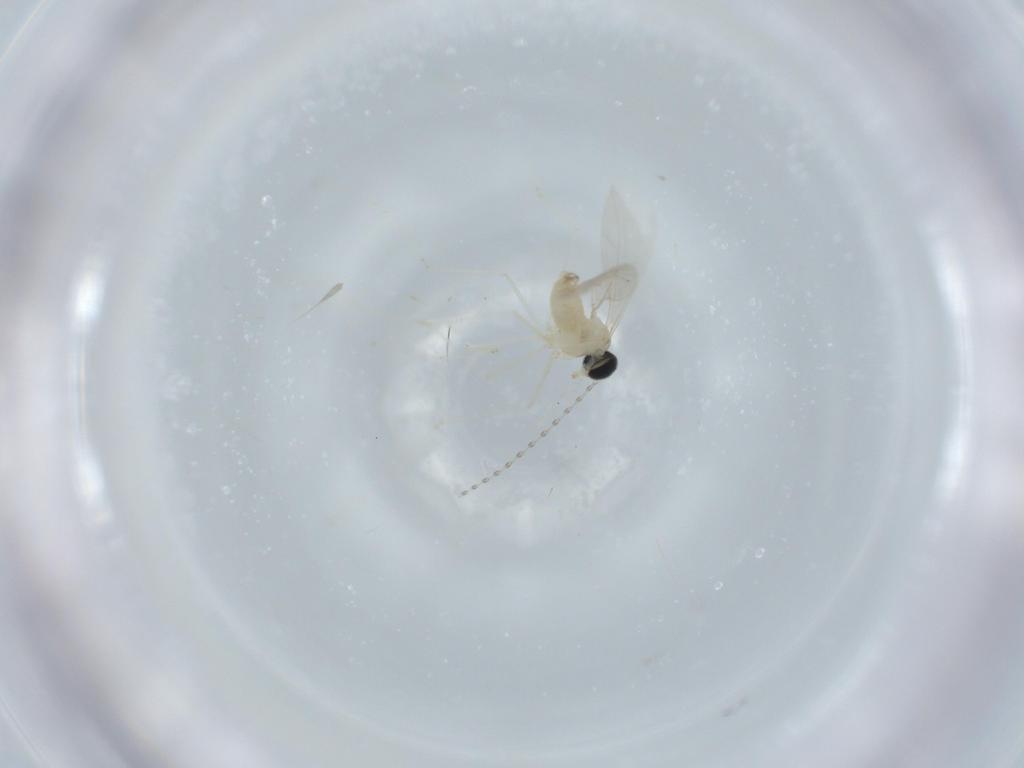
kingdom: Animalia
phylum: Arthropoda
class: Insecta
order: Diptera
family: Cecidomyiidae
